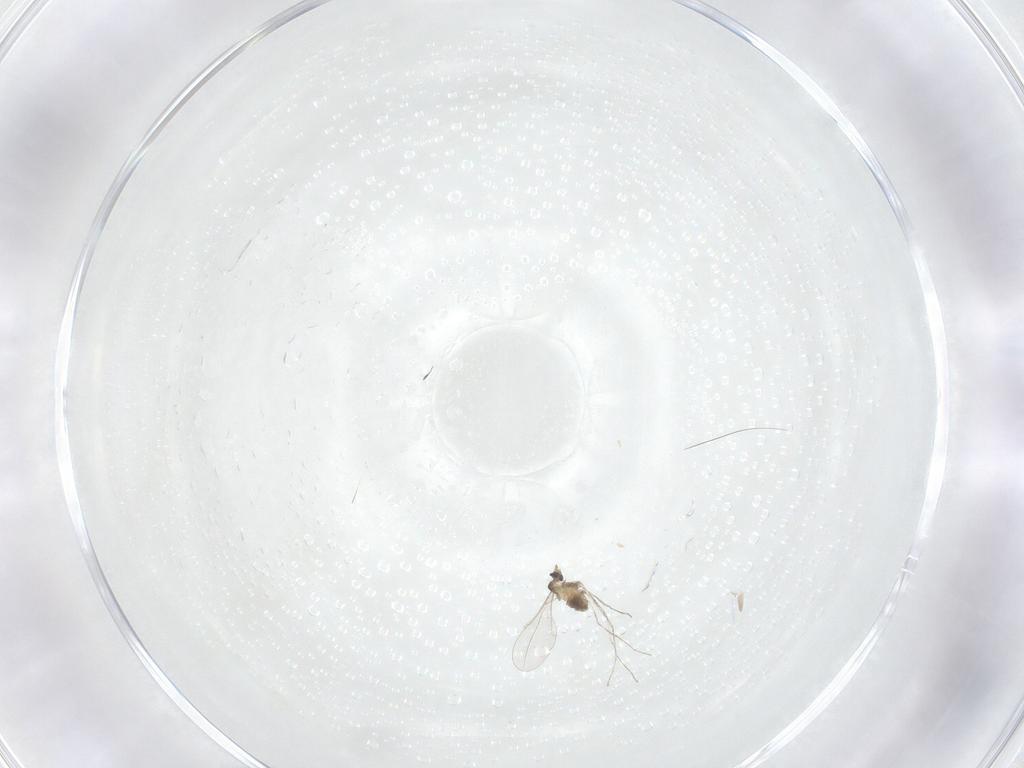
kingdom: Animalia
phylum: Arthropoda
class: Insecta
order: Diptera
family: Cecidomyiidae
